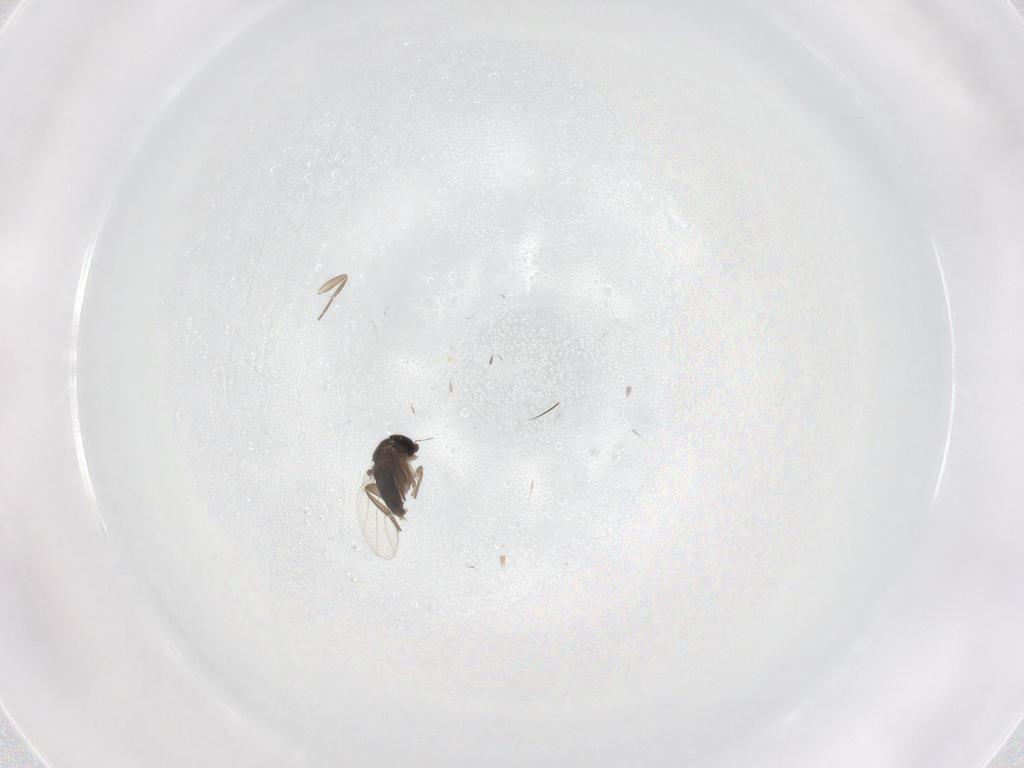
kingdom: Animalia
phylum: Arthropoda
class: Insecta
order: Diptera
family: Phoridae
